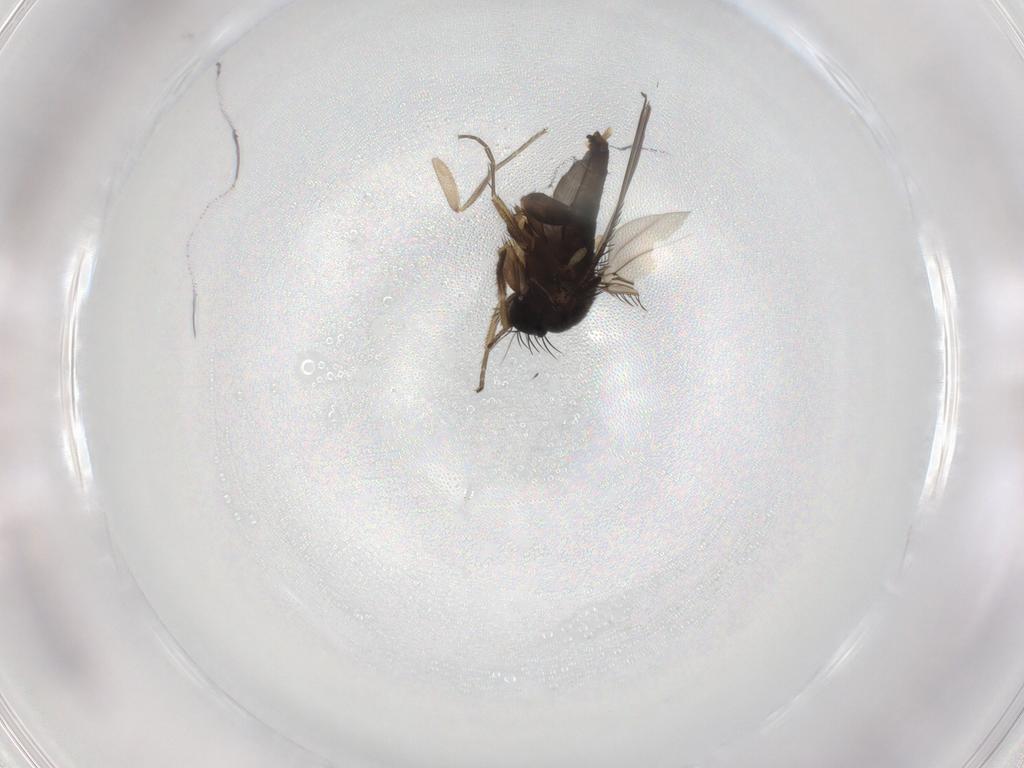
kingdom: Animalia
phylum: Arthropoda
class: Insecta
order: Diptera
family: Phoridae
